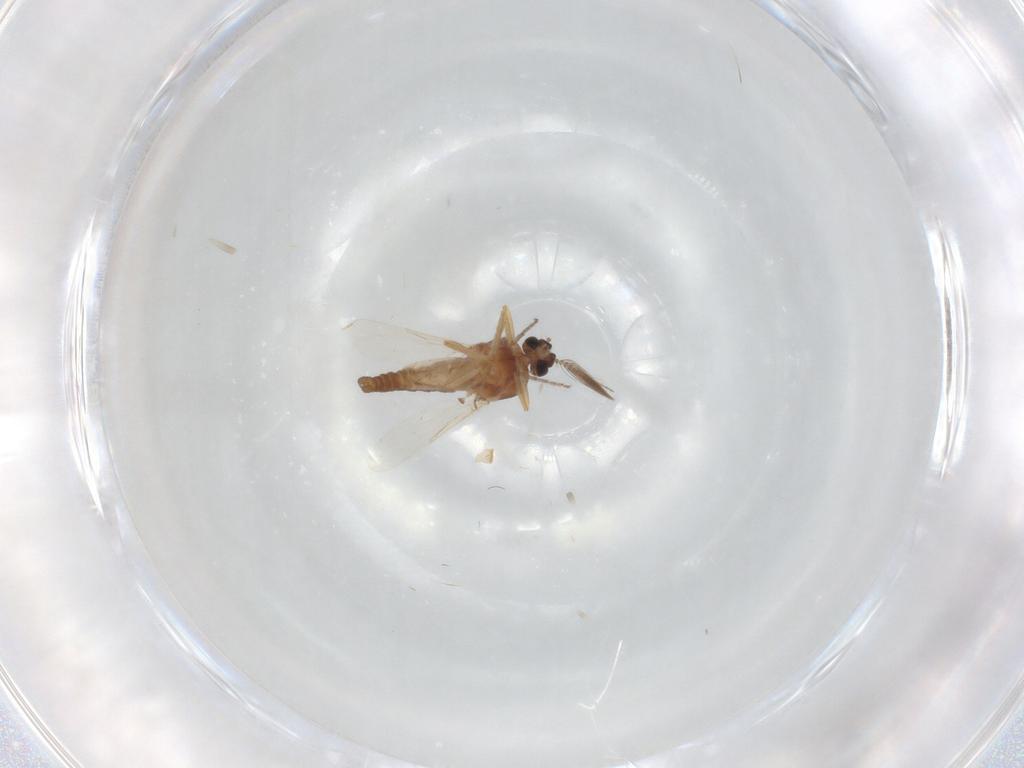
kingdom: Animalia
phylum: Arthropoda
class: Insecta
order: Diptera
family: Ceratopogonidae
